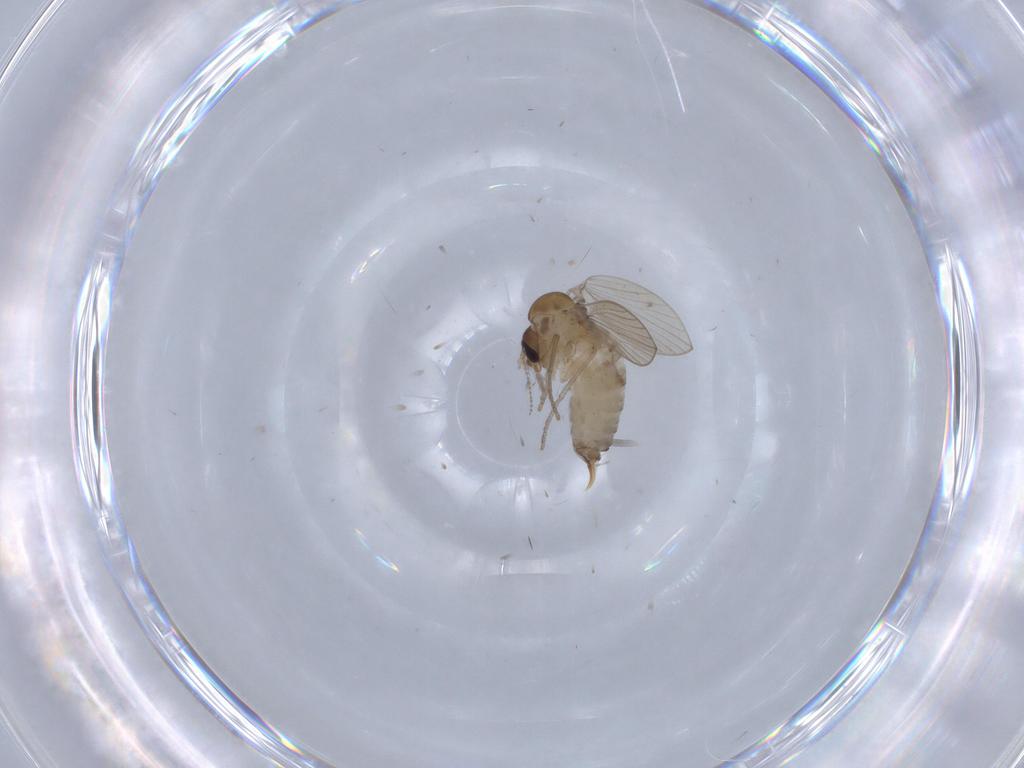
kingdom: Animalia
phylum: Arthropoda
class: Insecta
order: Diptera
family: Psychodidae
